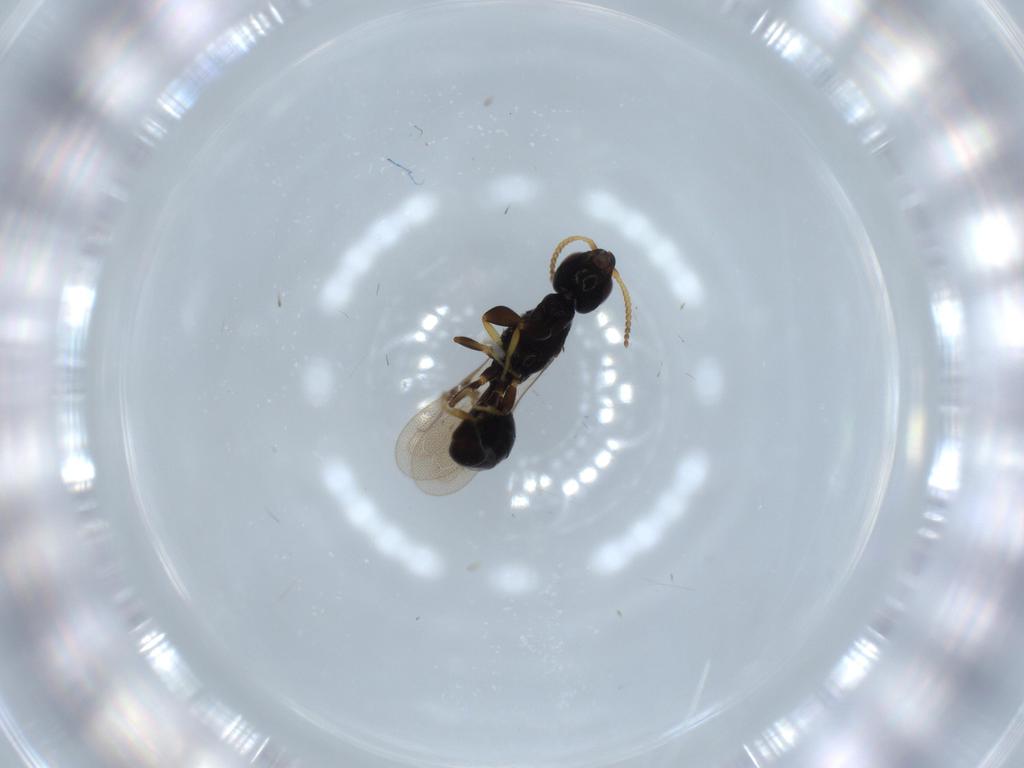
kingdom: Animalia
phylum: Arthropoda
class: Insecta
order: Hymenoptera
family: Bethylidae
